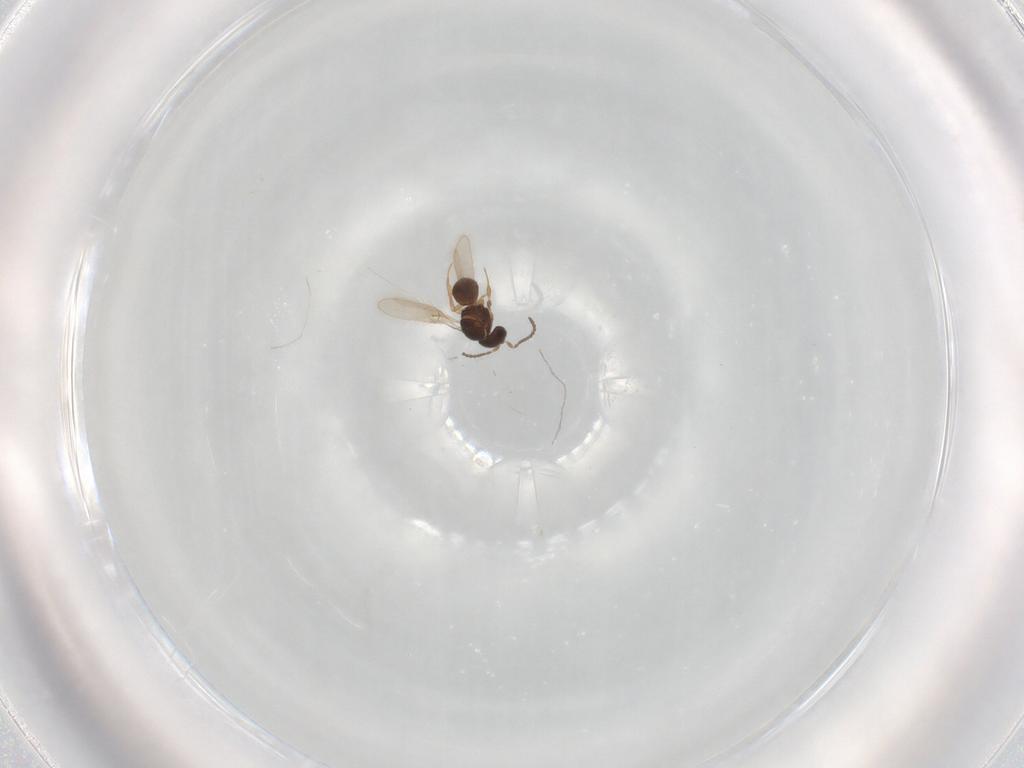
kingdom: Animalia
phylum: Arthropoda
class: Insecta
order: Hymenoptera
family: Scelionidae
